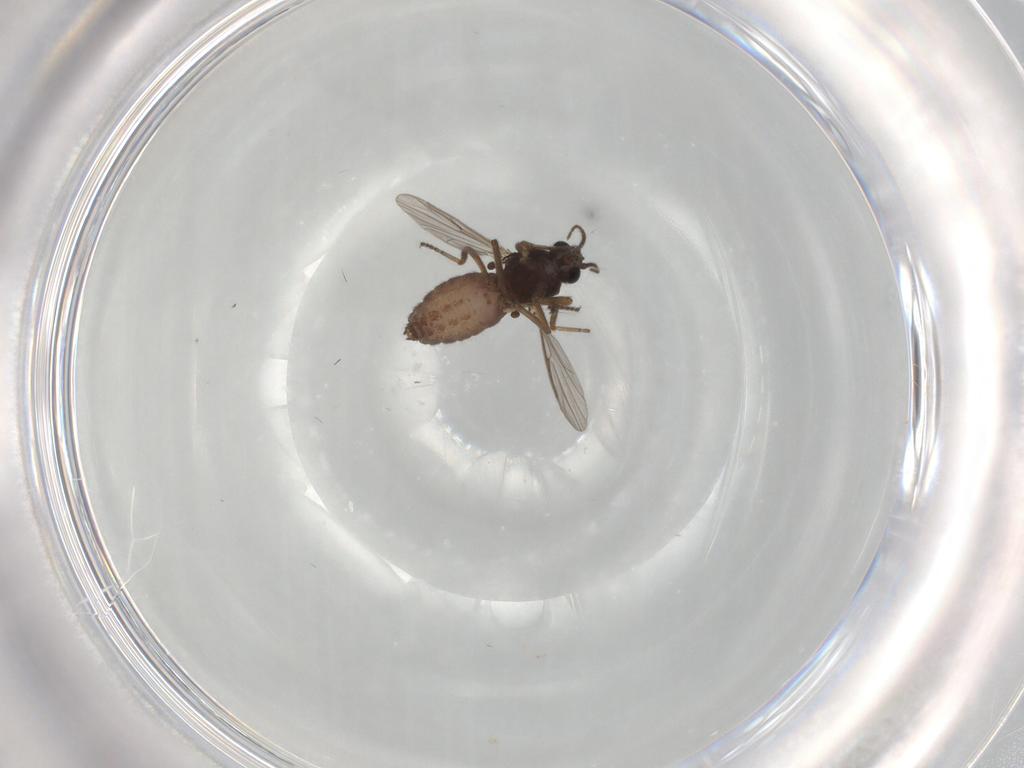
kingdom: Animalia
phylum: Arthropoda
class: Insecta
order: Diptera
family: Ceratopogonidae
